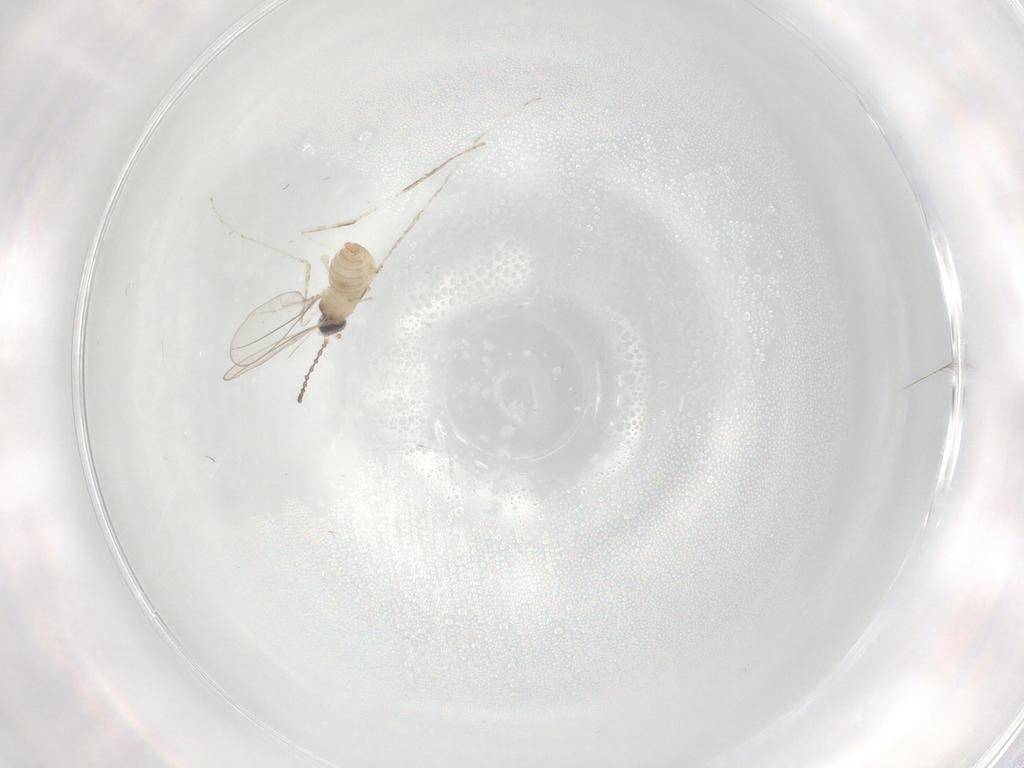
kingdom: Animalia
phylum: Arthropoda
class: Insecta
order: Diptera
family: Cecidomyiidae
